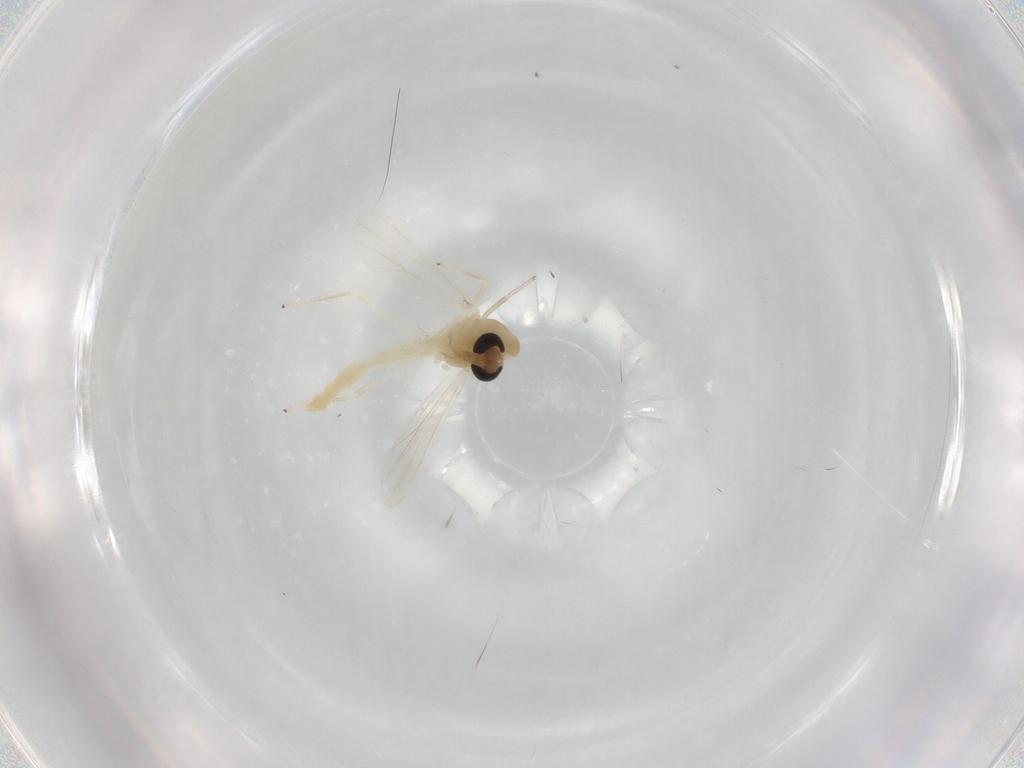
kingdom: Animalia
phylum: Arthropoda
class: Insecta
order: Diptera
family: Chironomidae
